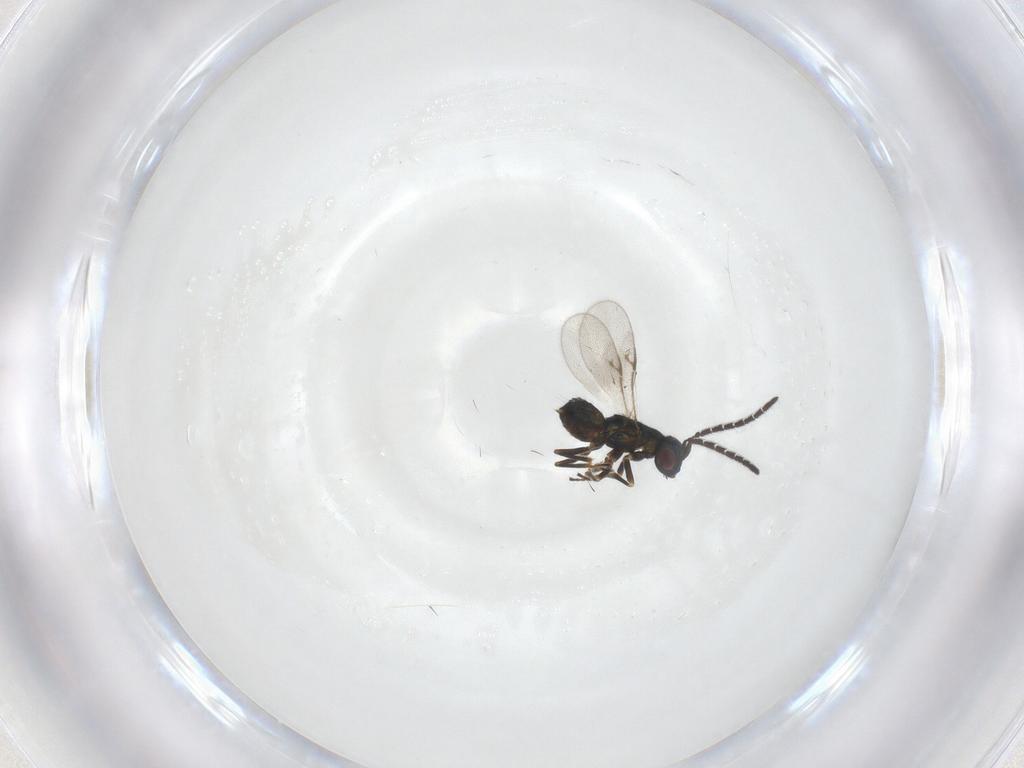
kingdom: Animalia
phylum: Arthropoda
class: Insecta
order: Hymenoptera
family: Encyrtidae
